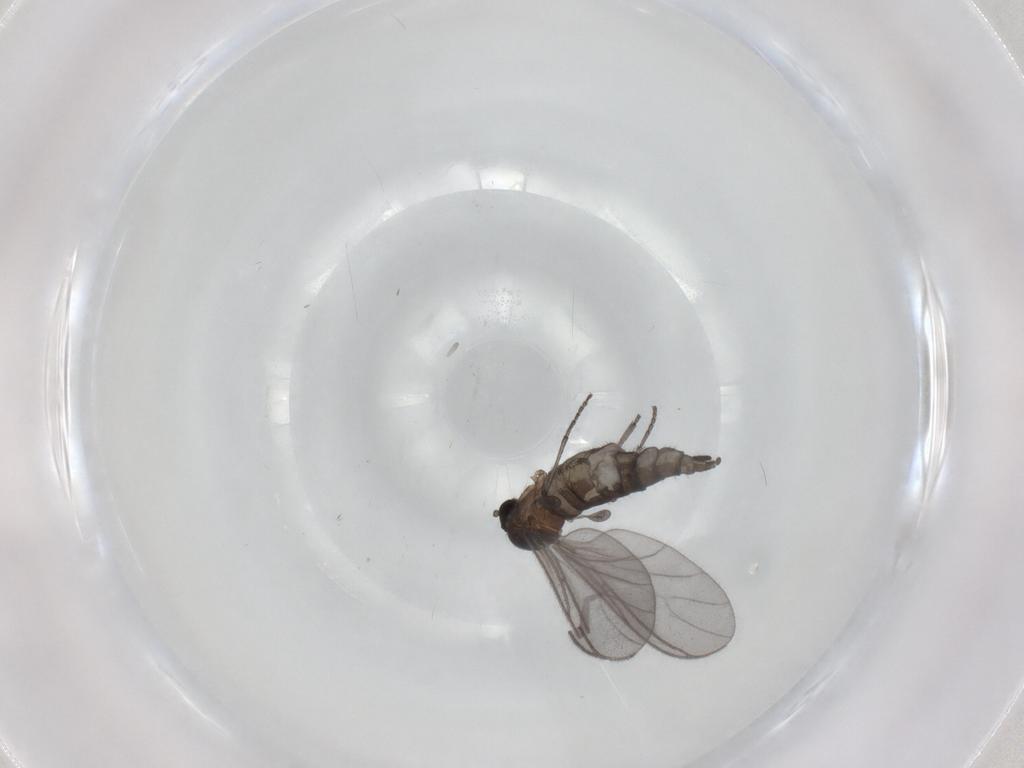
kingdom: Animalia
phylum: Arthropoda
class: Insecta
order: Diptera
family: Sciaridae
